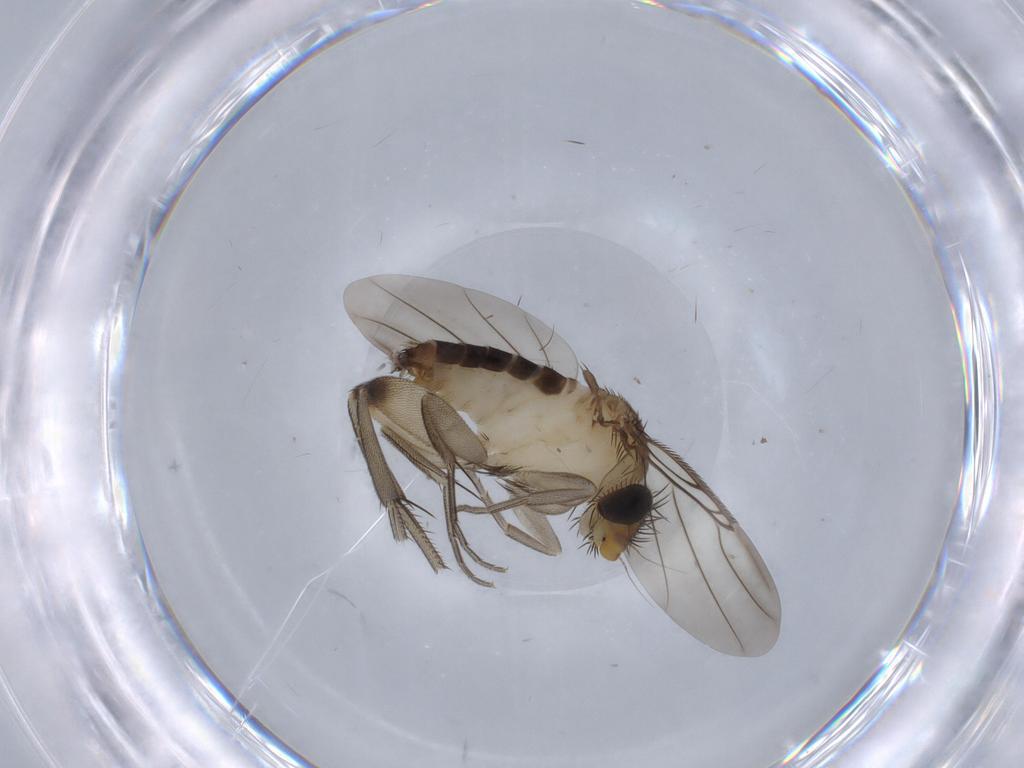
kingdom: Animalia
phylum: Arthropoda
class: Insecta
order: Diptera
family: Cecidomyiidae
